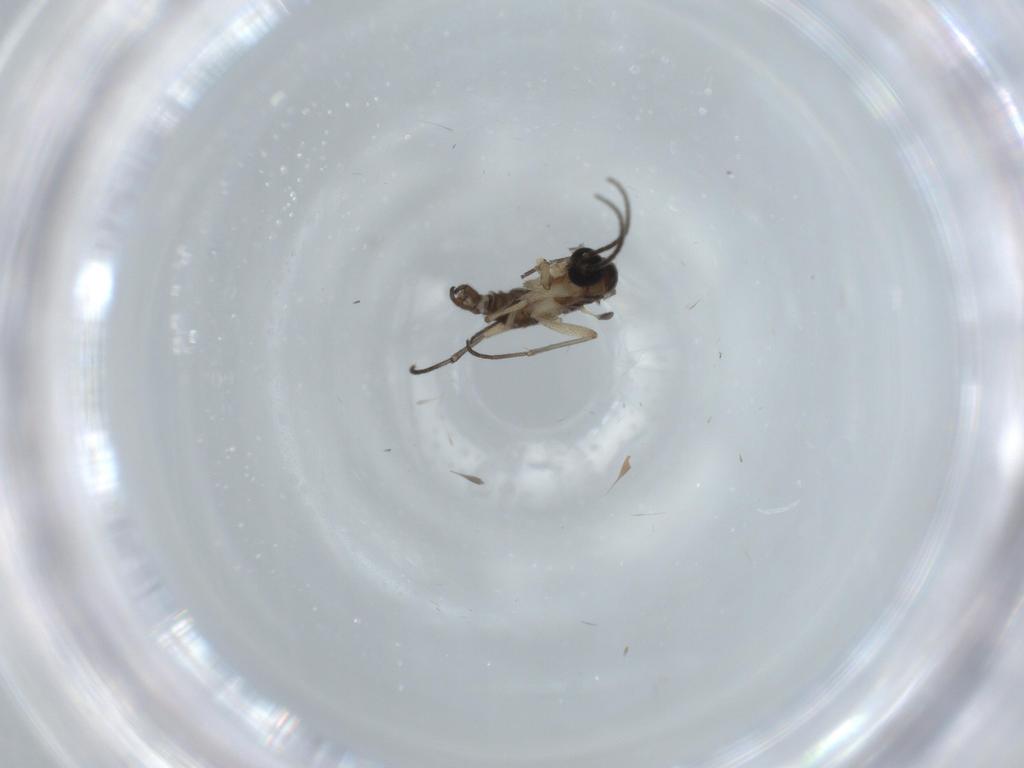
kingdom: Animalia
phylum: Arthropoda
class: Insecta
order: Diptera
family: Sciaridae
